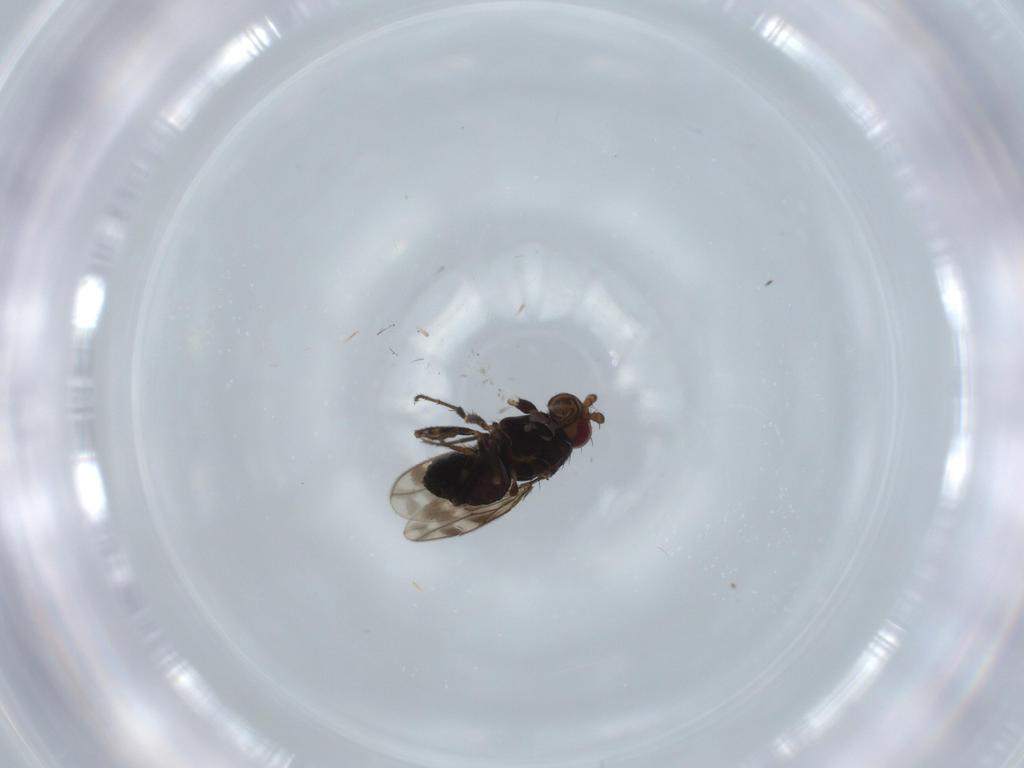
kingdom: Animalia
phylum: Arthropoda
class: Insecta
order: Diptera
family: Sphaeroceridae
